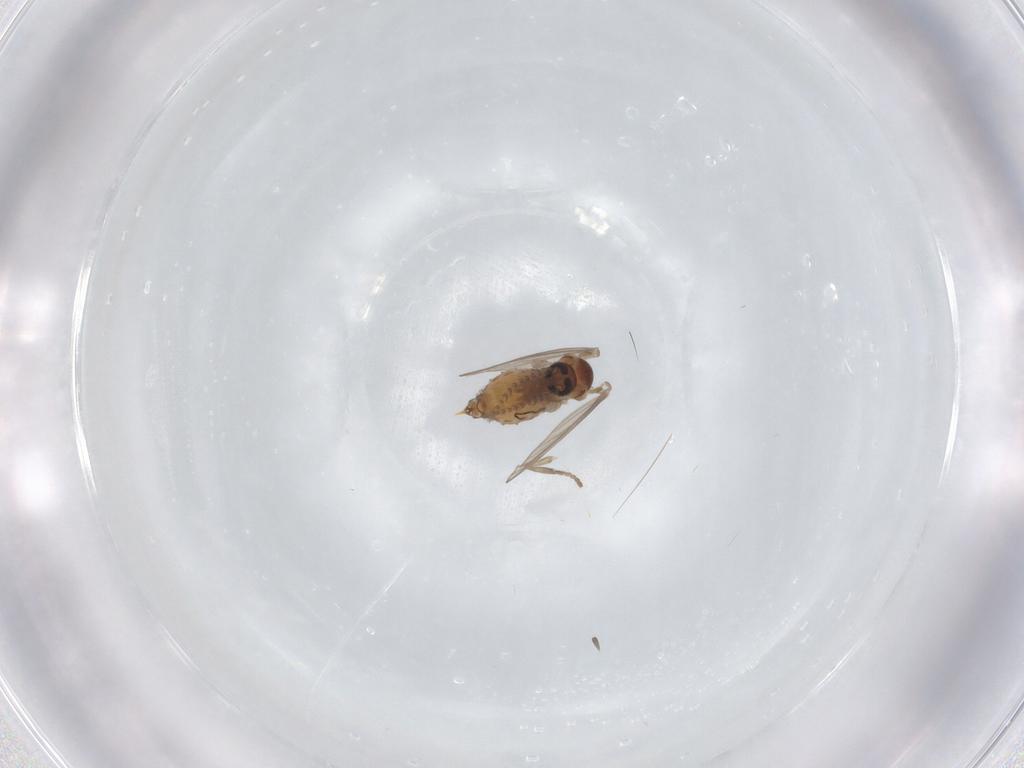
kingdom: Animalia
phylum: Arthropoda
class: Insecta
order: Diptera
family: Psychodidae
